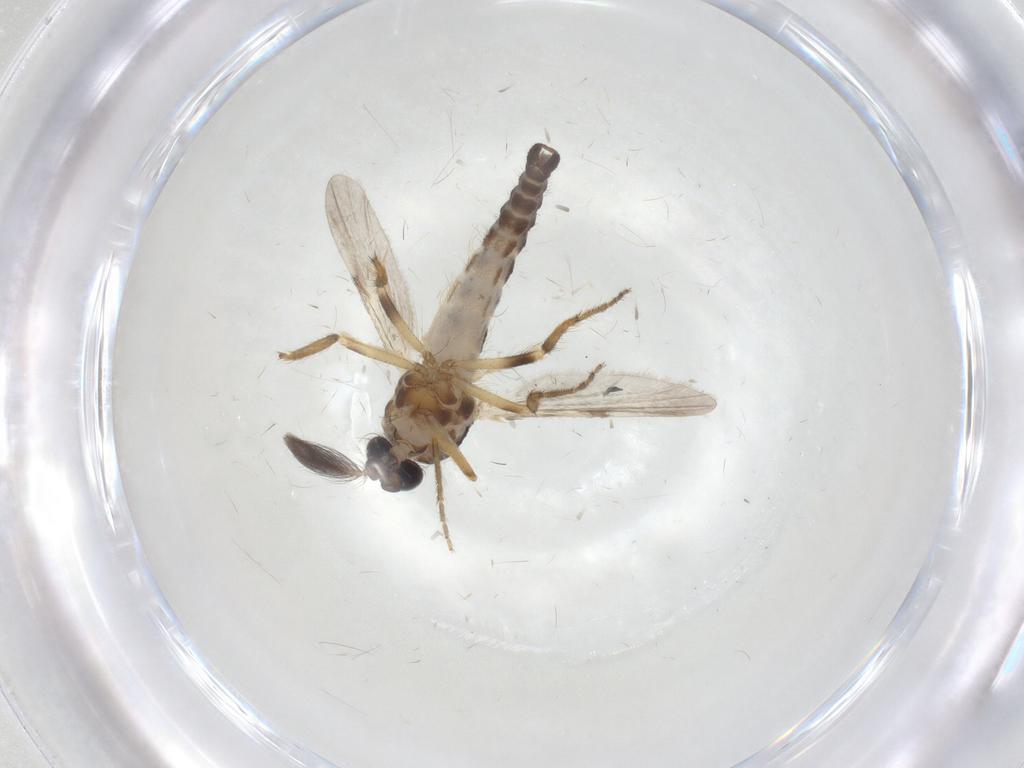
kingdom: Animalia
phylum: Arthropoda
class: Insecta
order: Diptera
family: Ceratopogonidae
